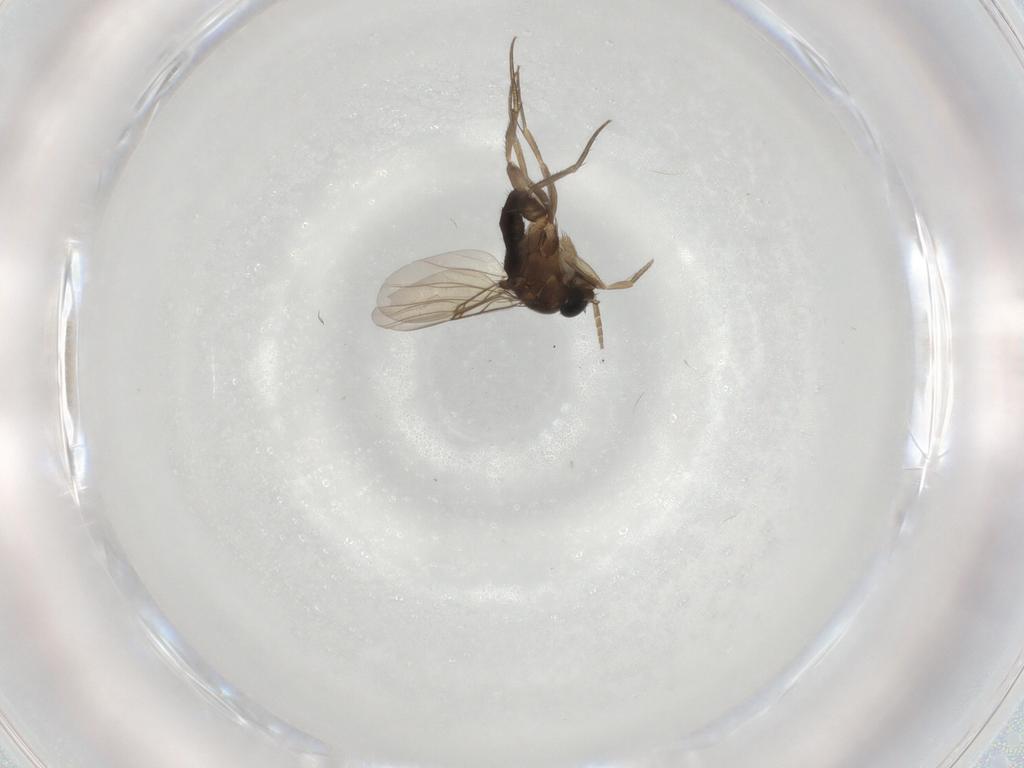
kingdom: Animalia
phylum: Arthropoda
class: Insecta
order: Diptera
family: Phoridae
